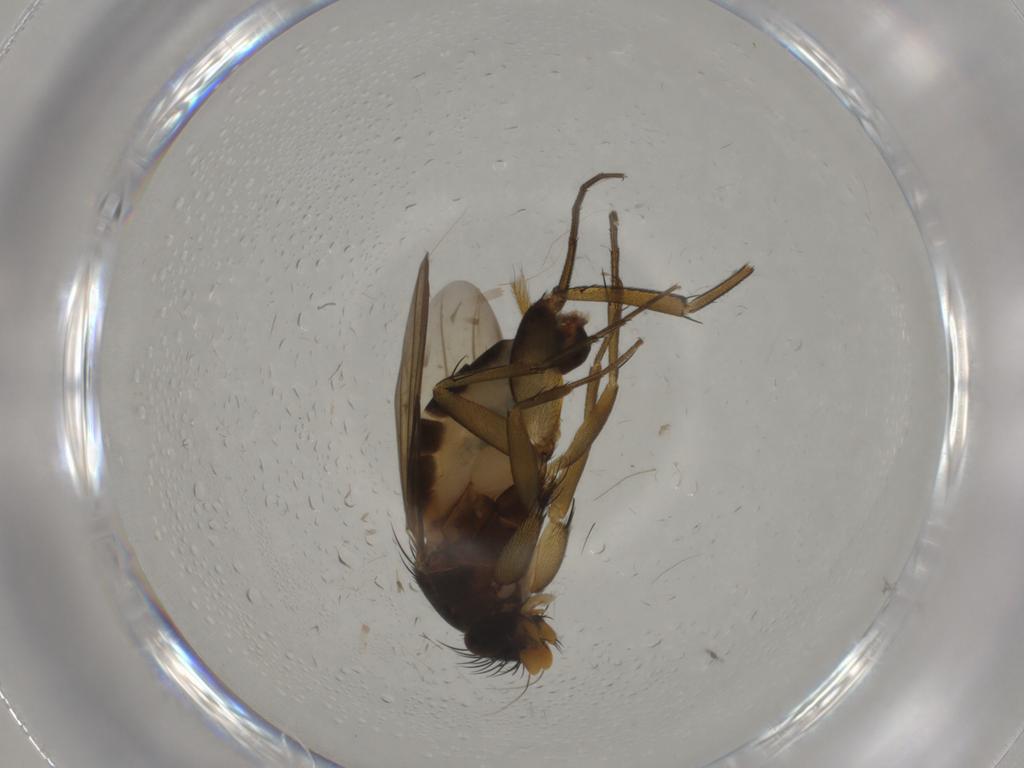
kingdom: Animalia
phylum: Arthropoda
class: Insecta
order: Diptera
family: Phoridae
